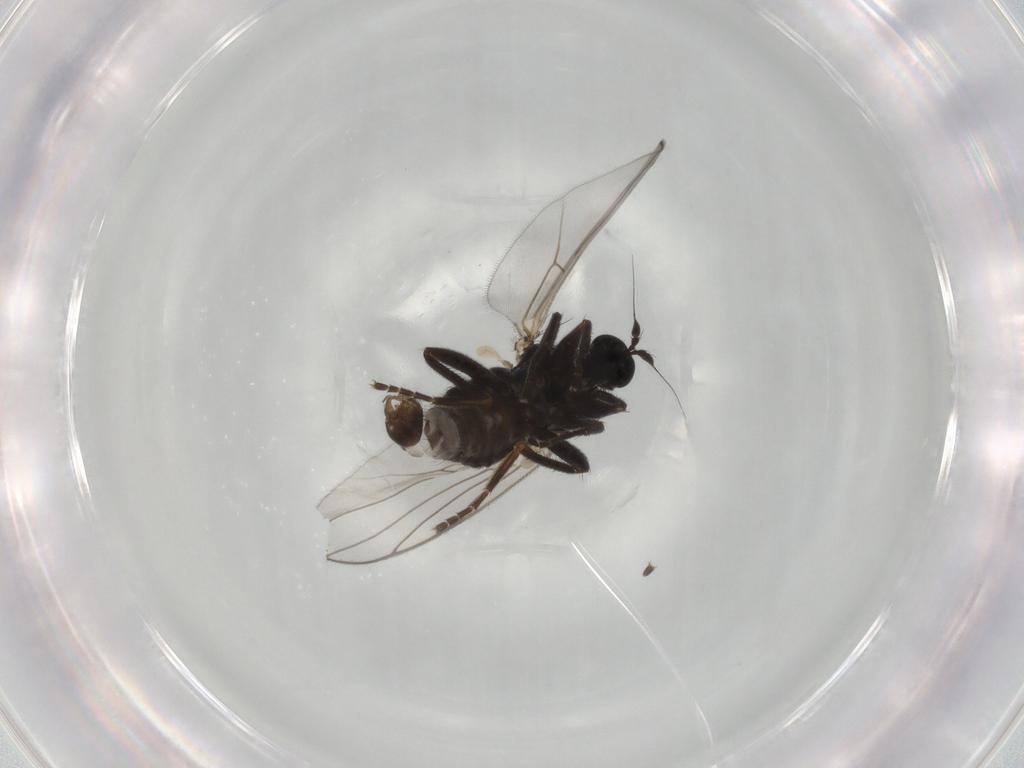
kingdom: Animalia
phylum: Arthropoda
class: Insecta
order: Diptera
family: Hybotidae
